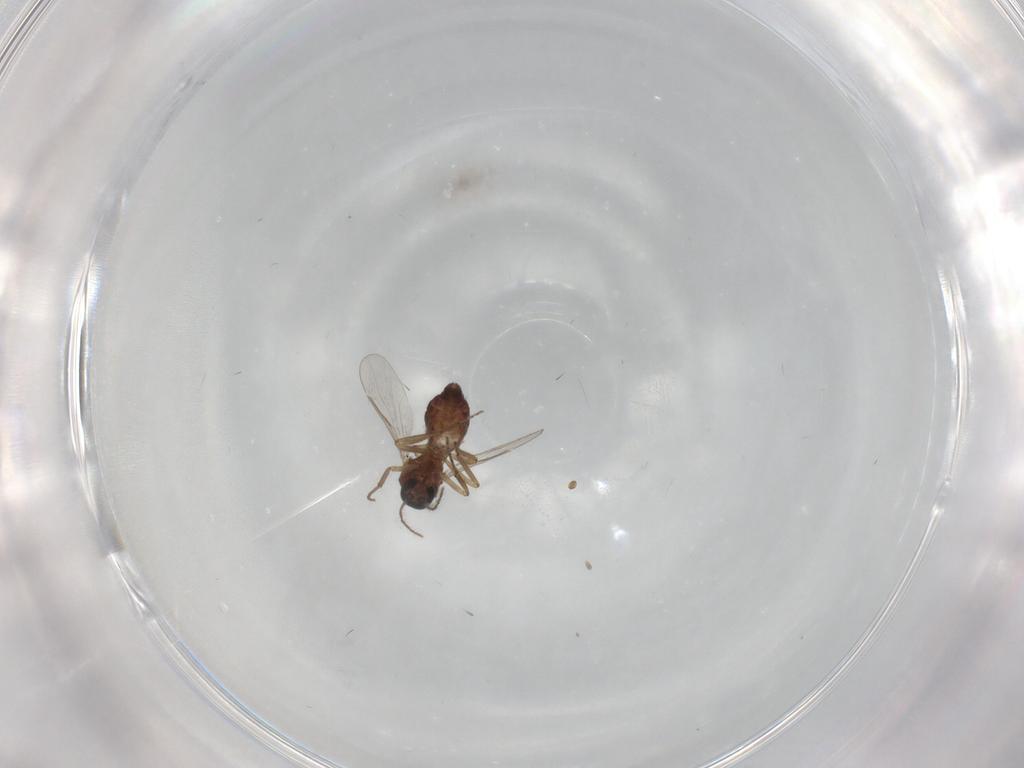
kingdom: Animalia
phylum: Arthropoda
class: Insecta
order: Diptera
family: Ceratopogonidae
